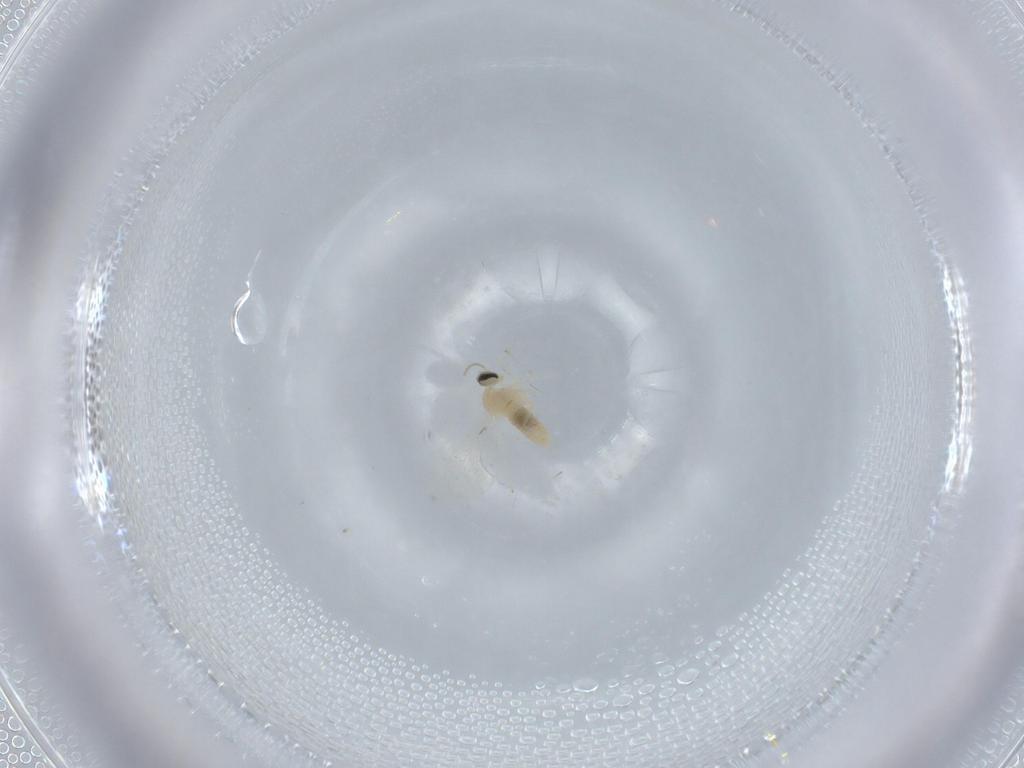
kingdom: Animalia
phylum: Arthropoda
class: Insecta
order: Diptera
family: Cecidomyiidae
